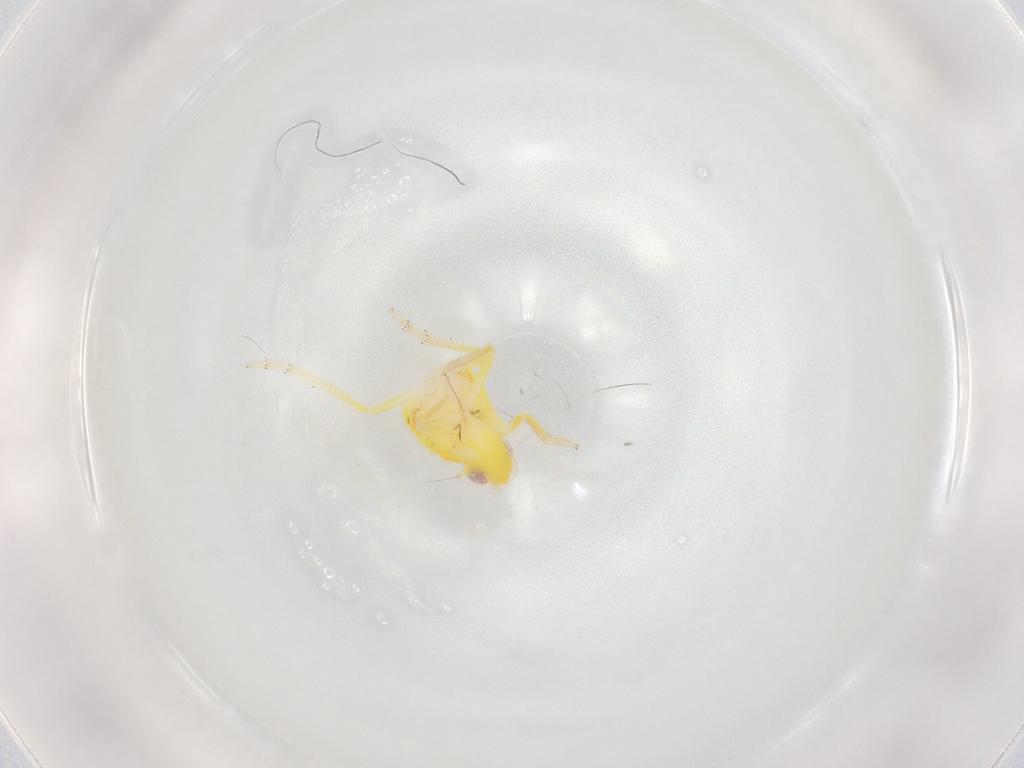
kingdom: Animalia
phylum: Arthropoda
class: Insecta
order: Hemiptera
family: Tropiduchidae
